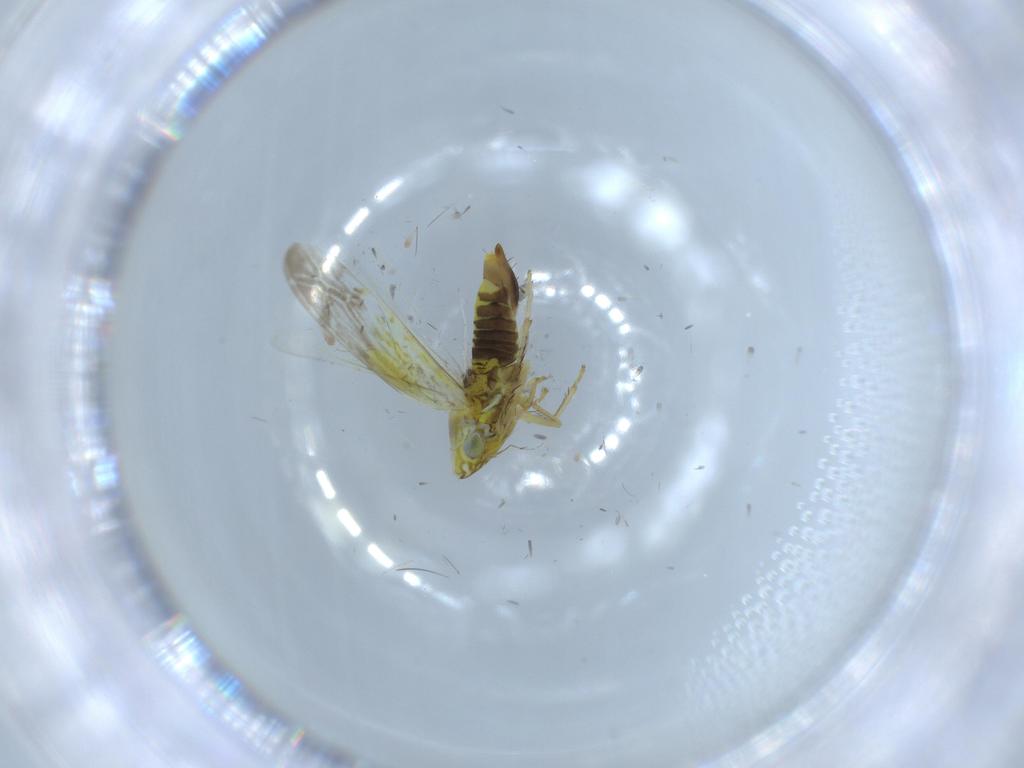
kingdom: Animalia
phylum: Arthropoda
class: Insecta
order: Hemiptera
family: Cicadellidae
